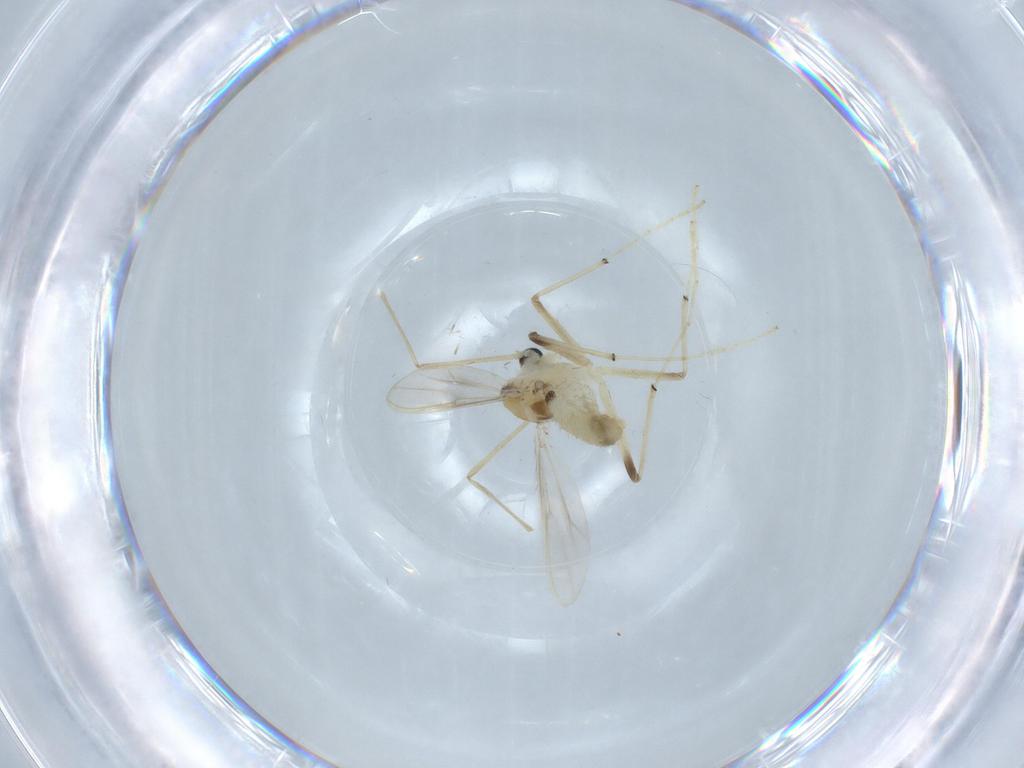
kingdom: Animalia
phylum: Arthropoda
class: Insecta
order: Diptera
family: Chironomidae
